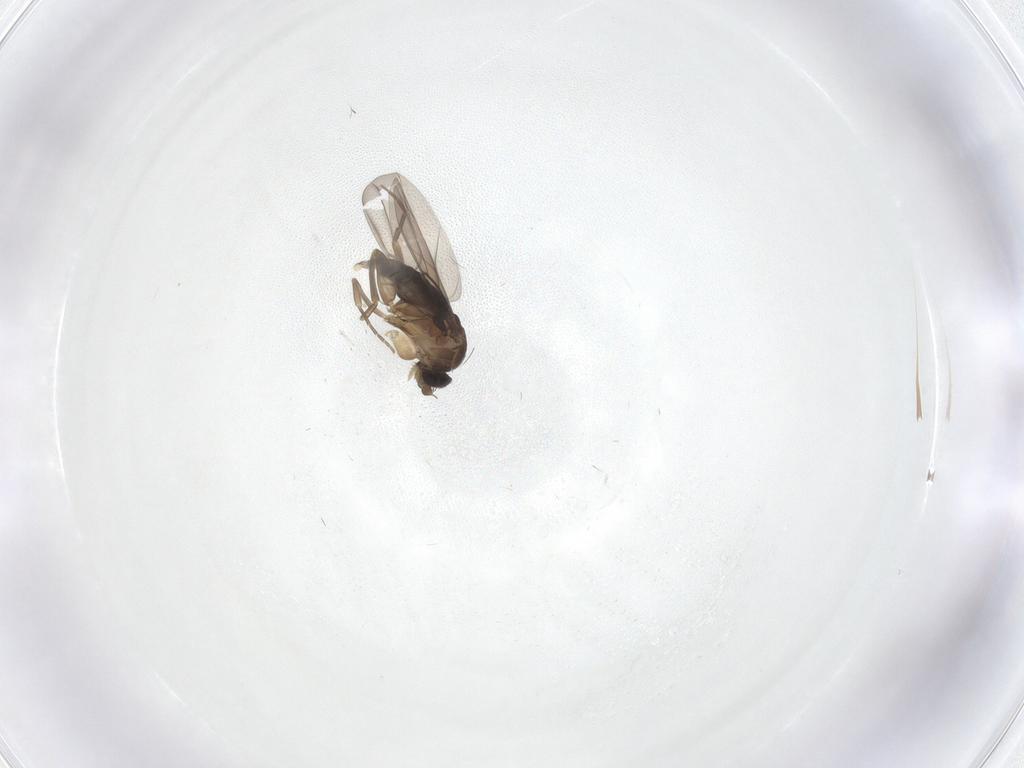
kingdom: Animalia
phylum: Arthropoda
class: Insecta
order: Diptera
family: Phoridae
